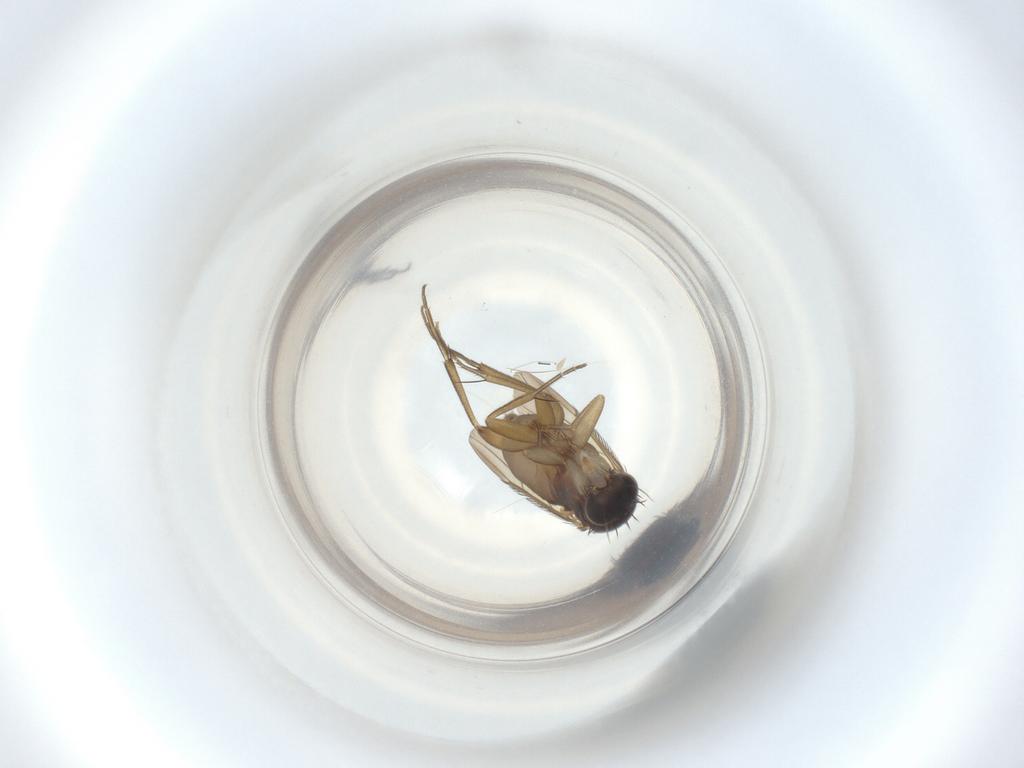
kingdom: Animalia
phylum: Arthropoda
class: Insecta
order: Diptera
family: Phoridae
